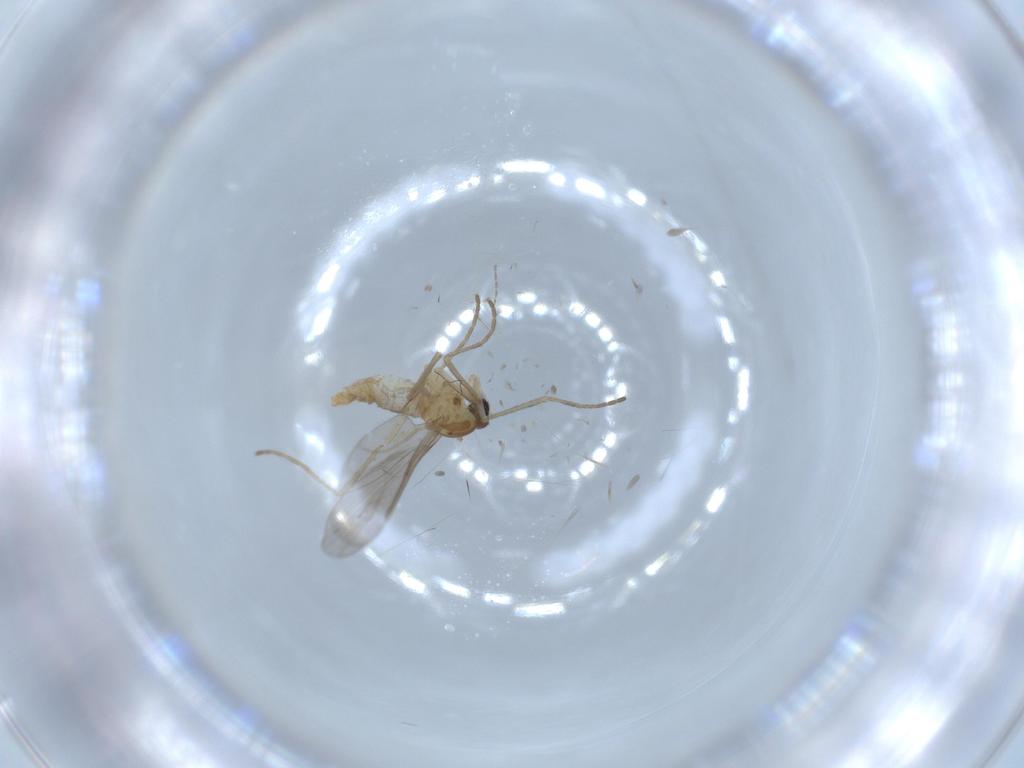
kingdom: Animalia
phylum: Arthropoda
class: Insecta
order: Diptera
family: Cecidomyiidae
